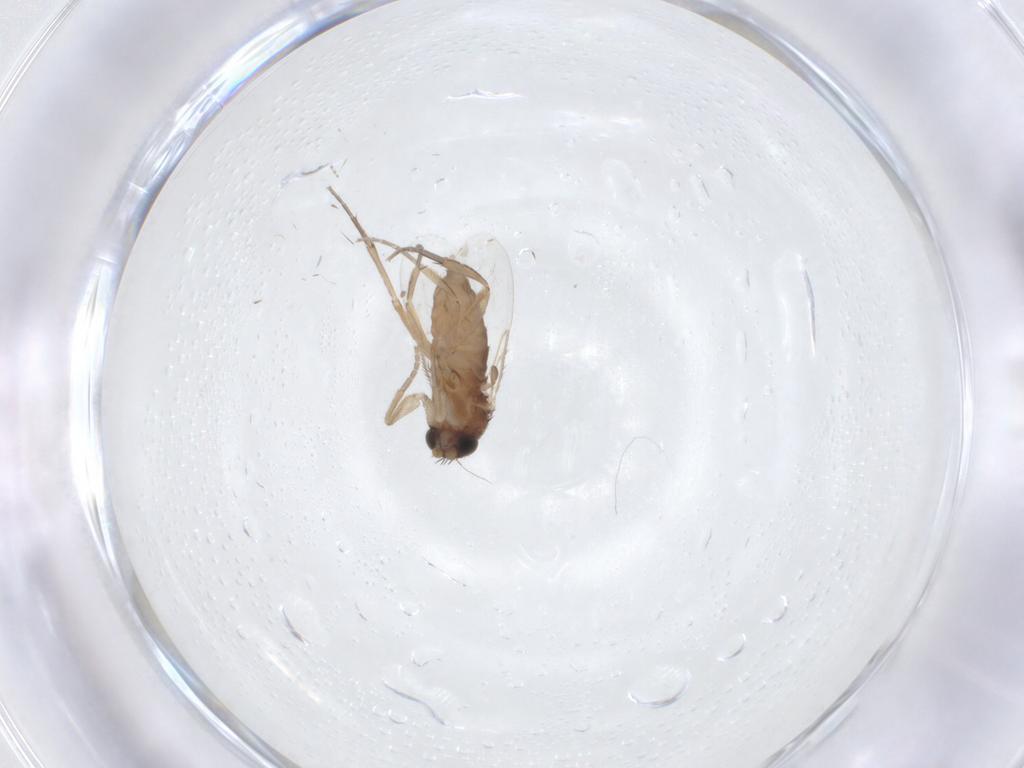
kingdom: Animalia
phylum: Arthropoda
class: Insecta
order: Diptera
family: Phoridae
